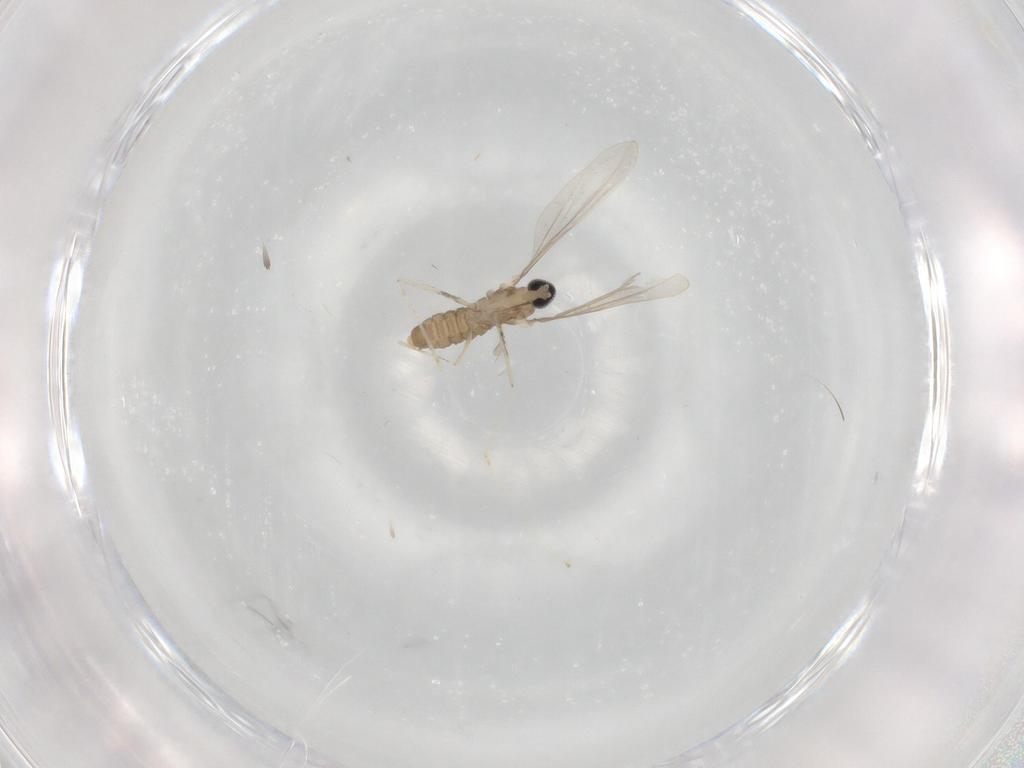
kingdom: Animalia
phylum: Arthropoda
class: Insecta
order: Diptera
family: Cecidomyiidae
